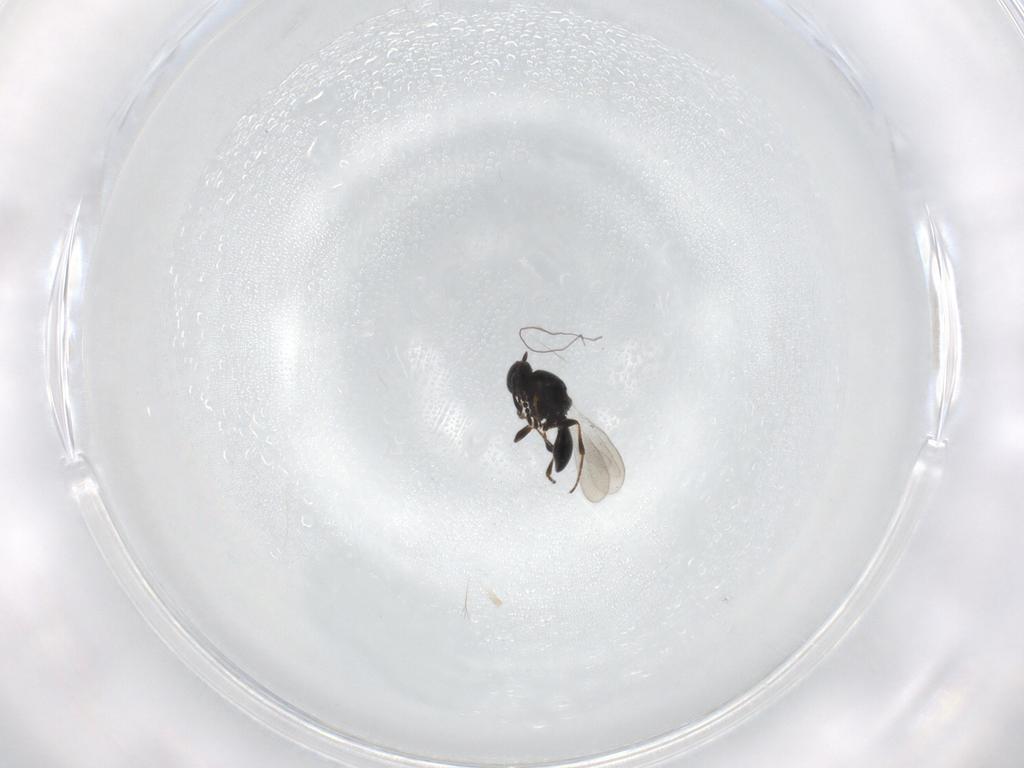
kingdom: Animalia
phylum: Arthropoda
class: Insecta
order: Hymenoptera
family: Platygastridae
